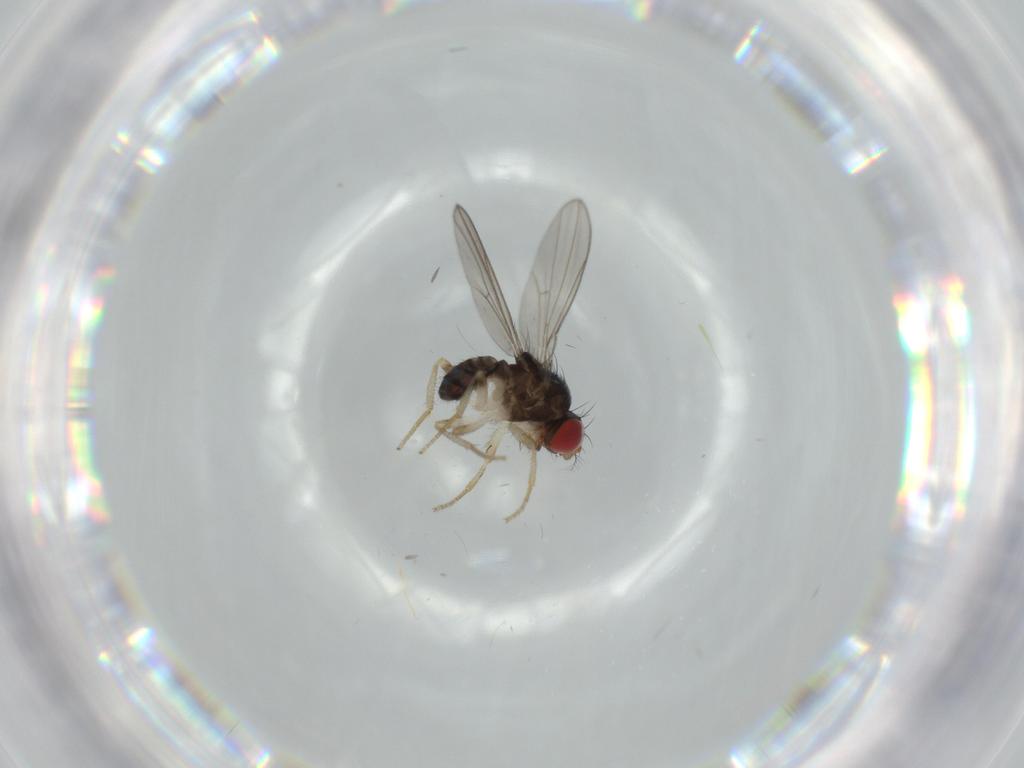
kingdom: Animalia
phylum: Arthropoda
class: Insecta
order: Diptera
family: Drosophilidae
